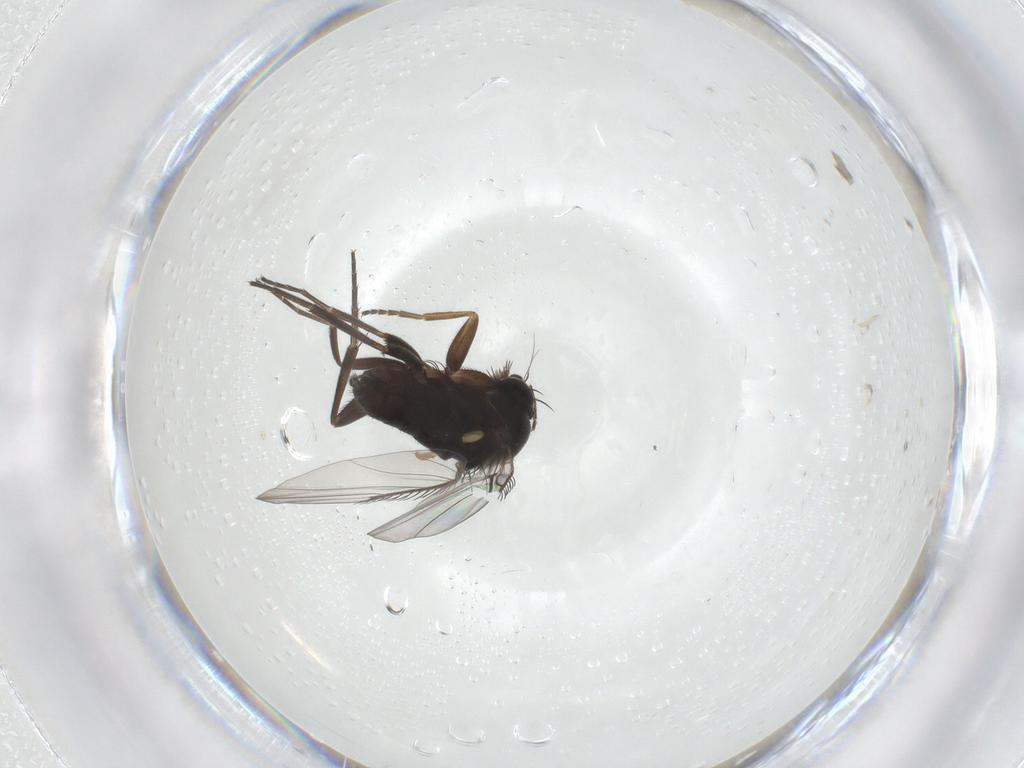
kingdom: Animalia
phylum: Arthropoda
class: Insecta
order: Diptera
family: Phoridae
